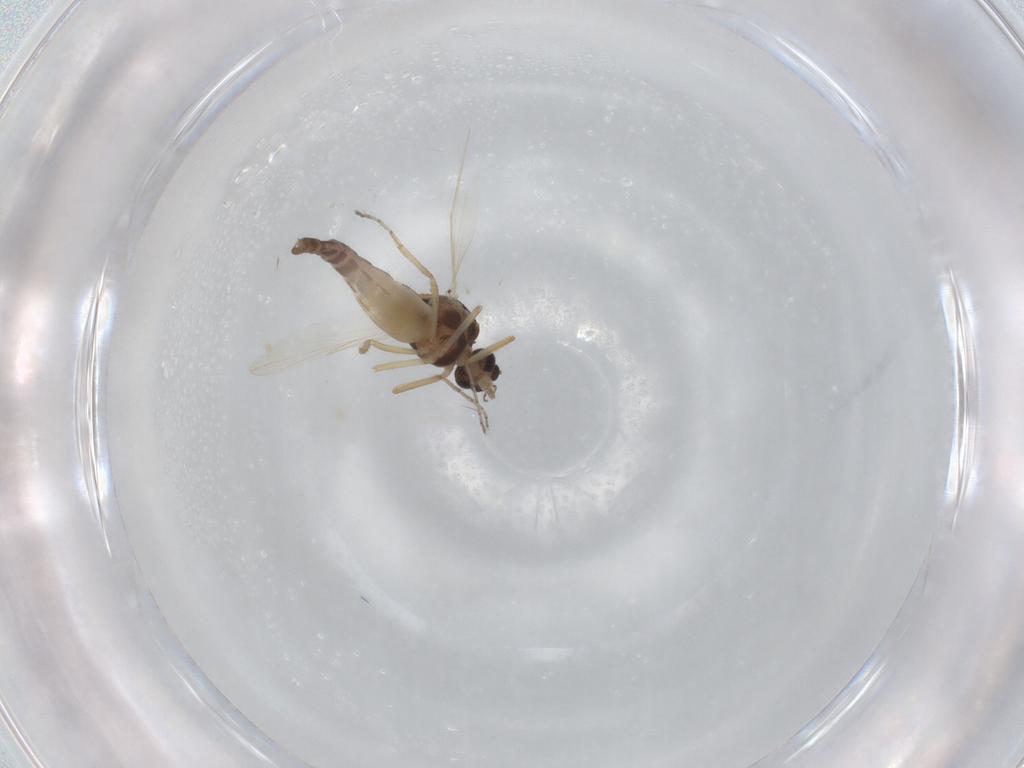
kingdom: Animalia
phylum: Arthropoda
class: Insecta
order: Diptera
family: Ceratopogonidae
